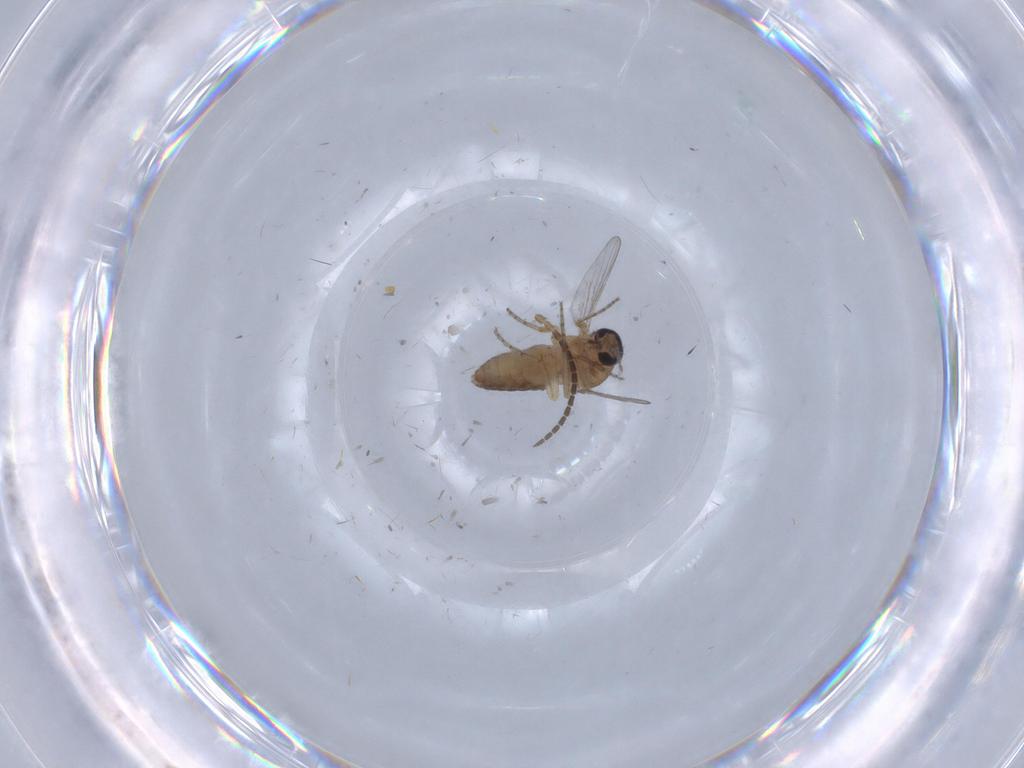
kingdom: Animalia
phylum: Arthropoda
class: Insecta
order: Diptera
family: Ceratopogonidae
